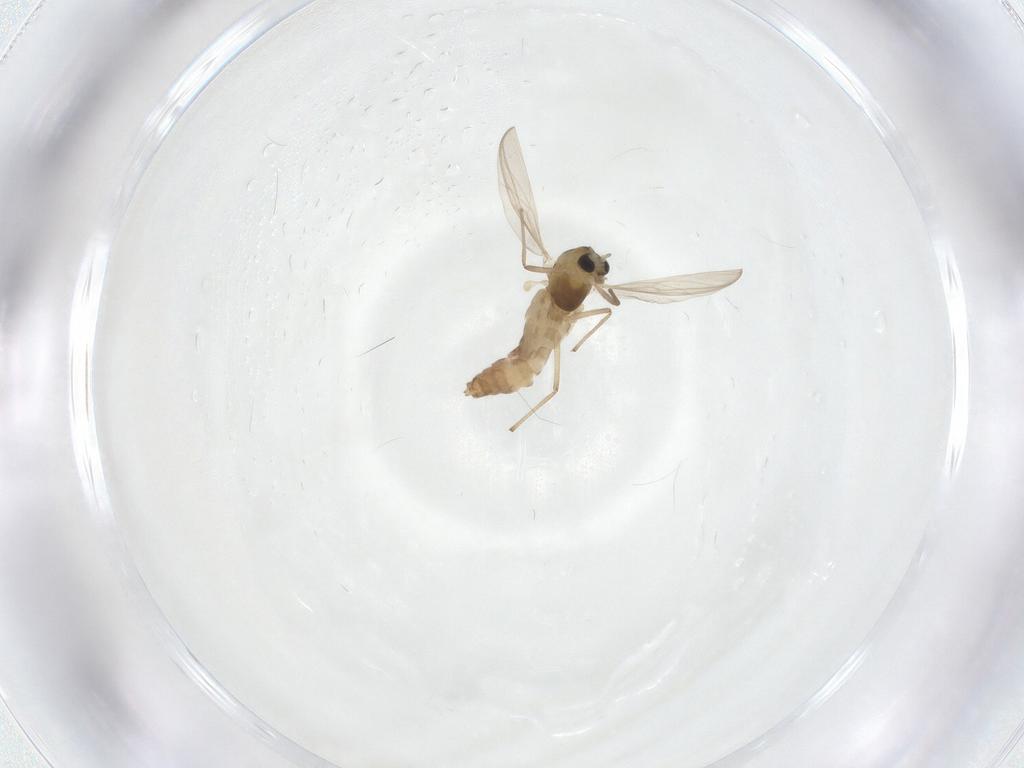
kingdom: Animalia
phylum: Arthropoda
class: Insecta
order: Diptera
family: Chironomidae
